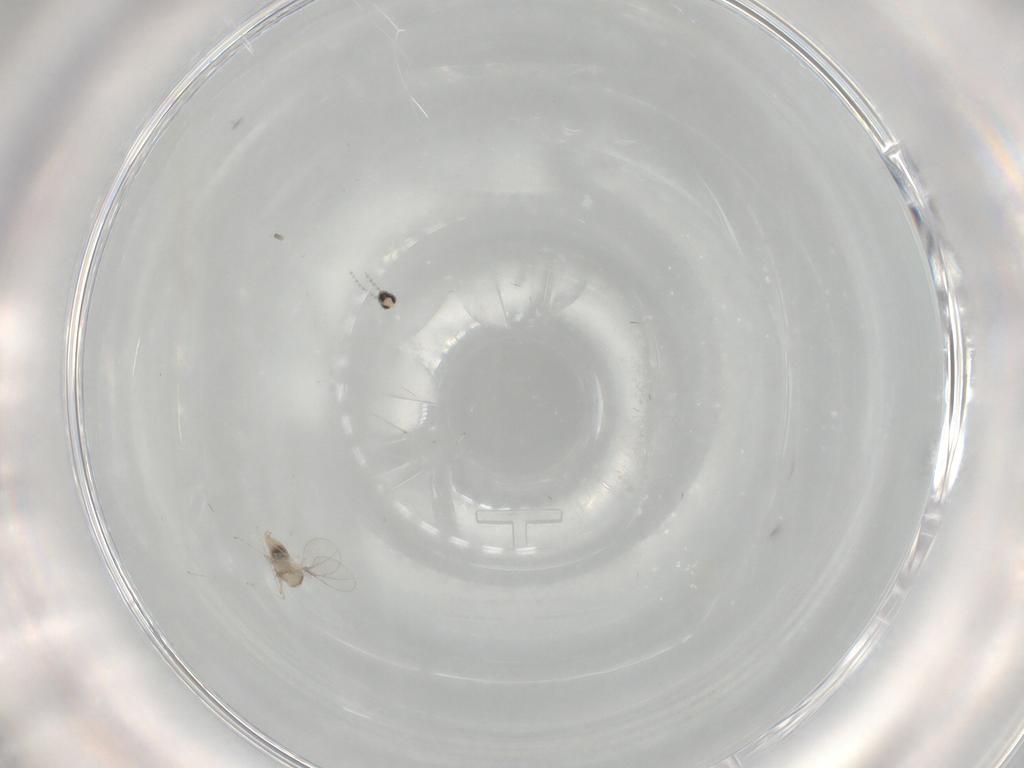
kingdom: Animalia
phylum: Arthropoda
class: Insecta
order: Diptera
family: Cecidomyiidae
